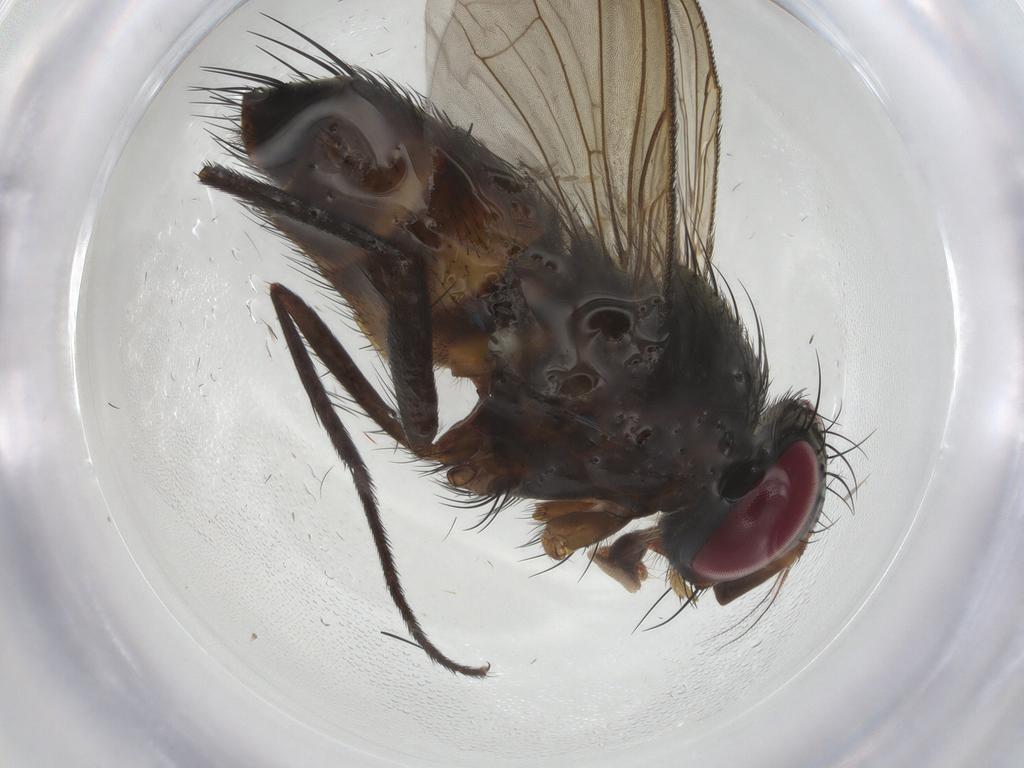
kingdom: Animalia
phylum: Arthropoda
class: Insecta
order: Diptera
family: Tachinidae
